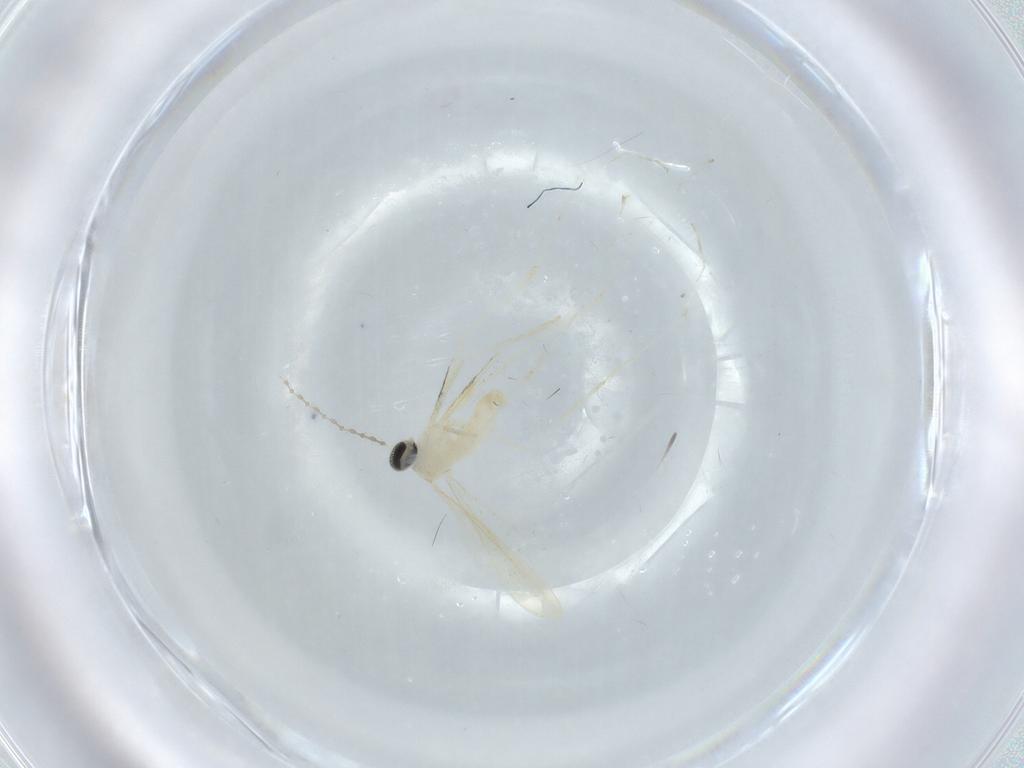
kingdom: Animalia
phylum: Arthropoda
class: Insecta
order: Diptera
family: Cecidomyiidae
